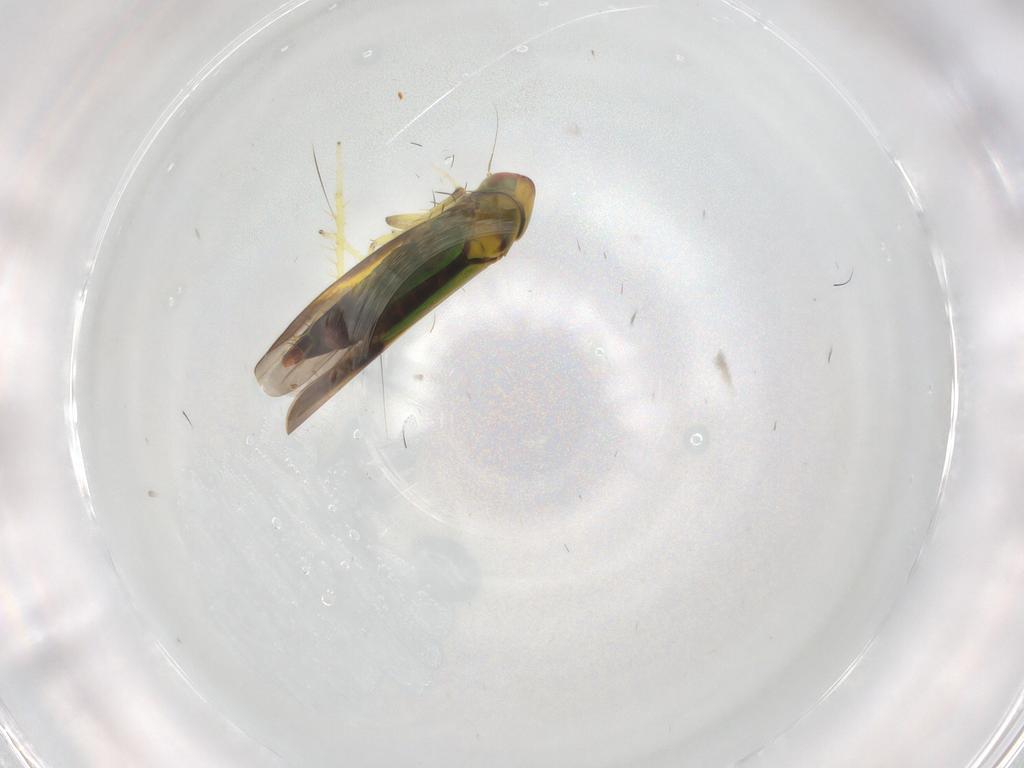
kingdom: Animalia
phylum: Arthropoda
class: Insecta
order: Hemiptera
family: Cicadellidae
